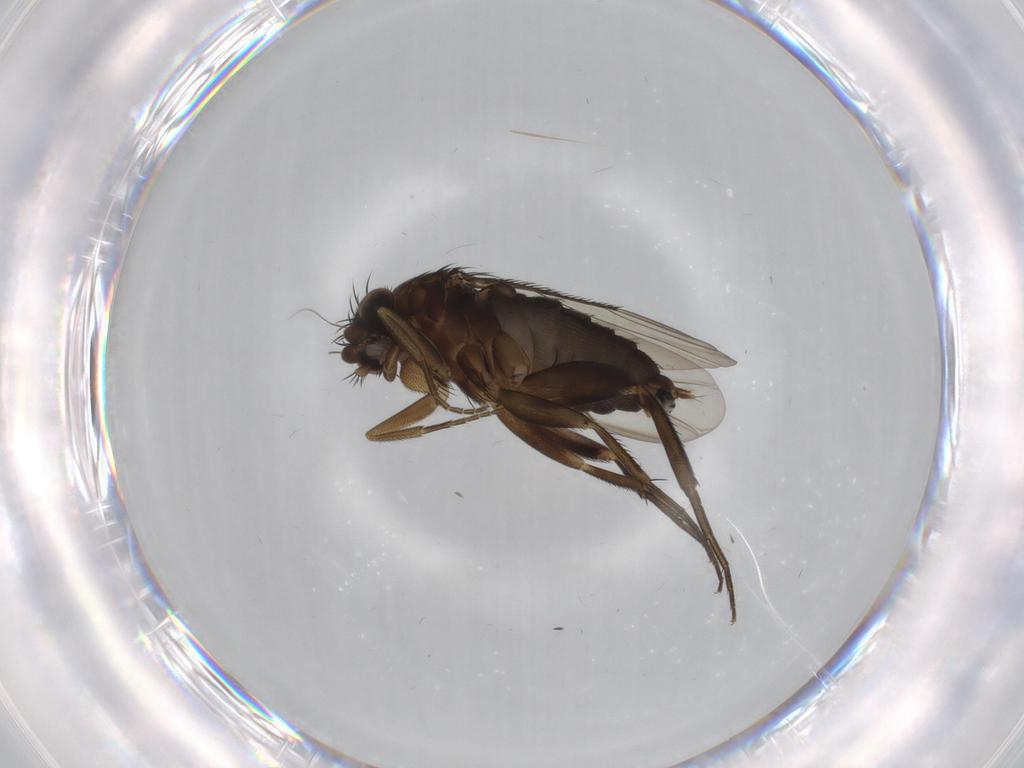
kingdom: Animalia
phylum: Arthropoda
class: Insecta
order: Diptera
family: Phoridae
